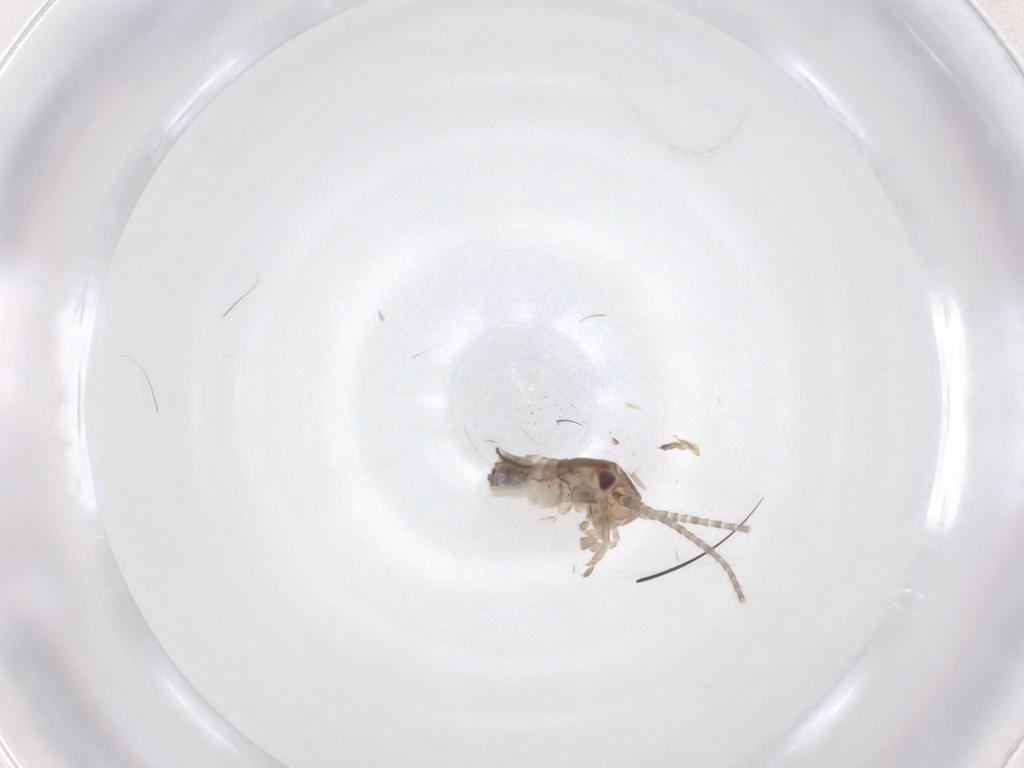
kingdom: Animalia
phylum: Arthropoda
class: Insecta
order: Orthoptera
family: Mogoplistidae
